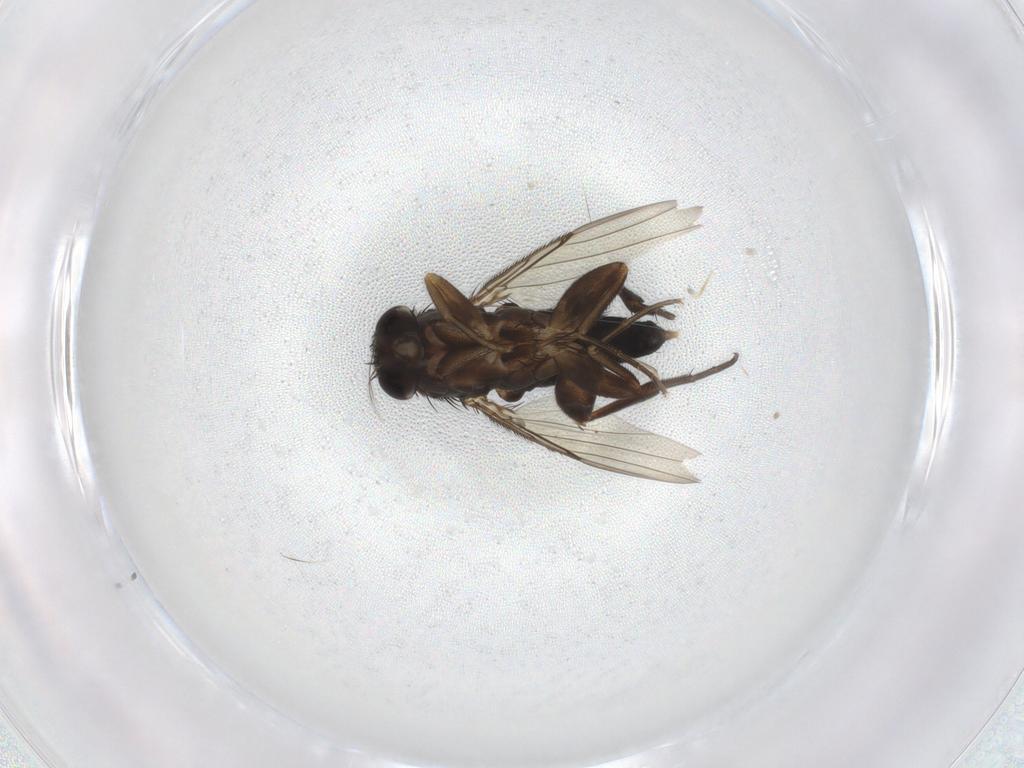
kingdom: Animalia
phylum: Arthropoda
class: Insecta
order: Diptera
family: Phoridae
